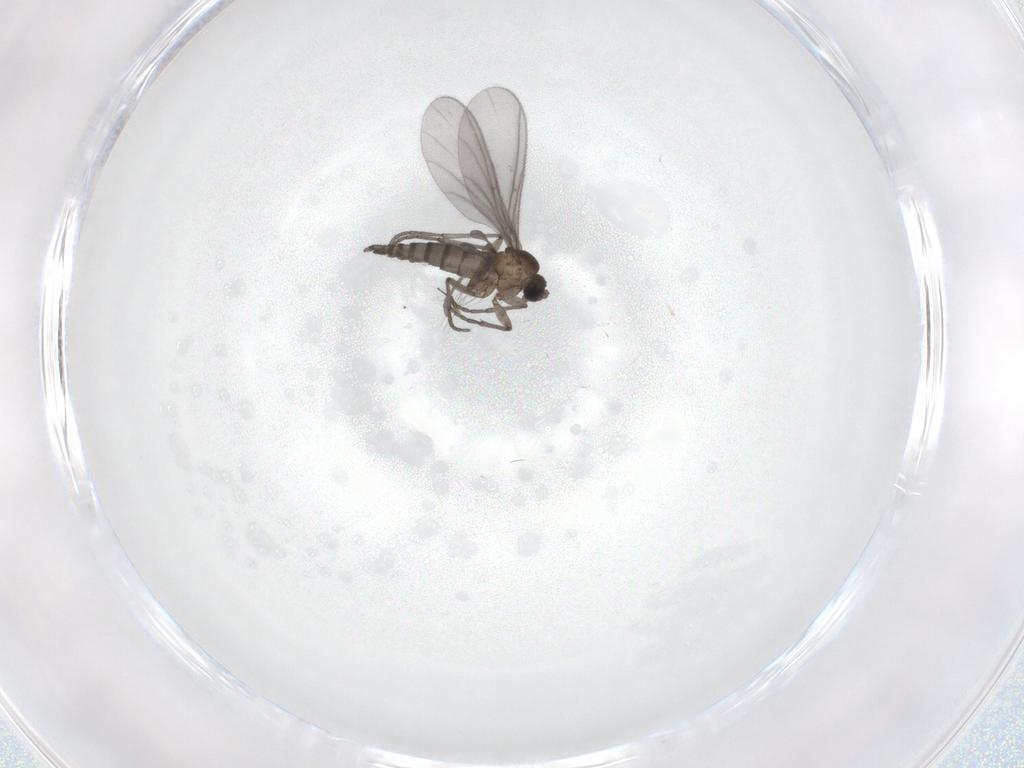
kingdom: Animalia
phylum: Arthropoda
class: Insecta
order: Diptera
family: Sciaridae
